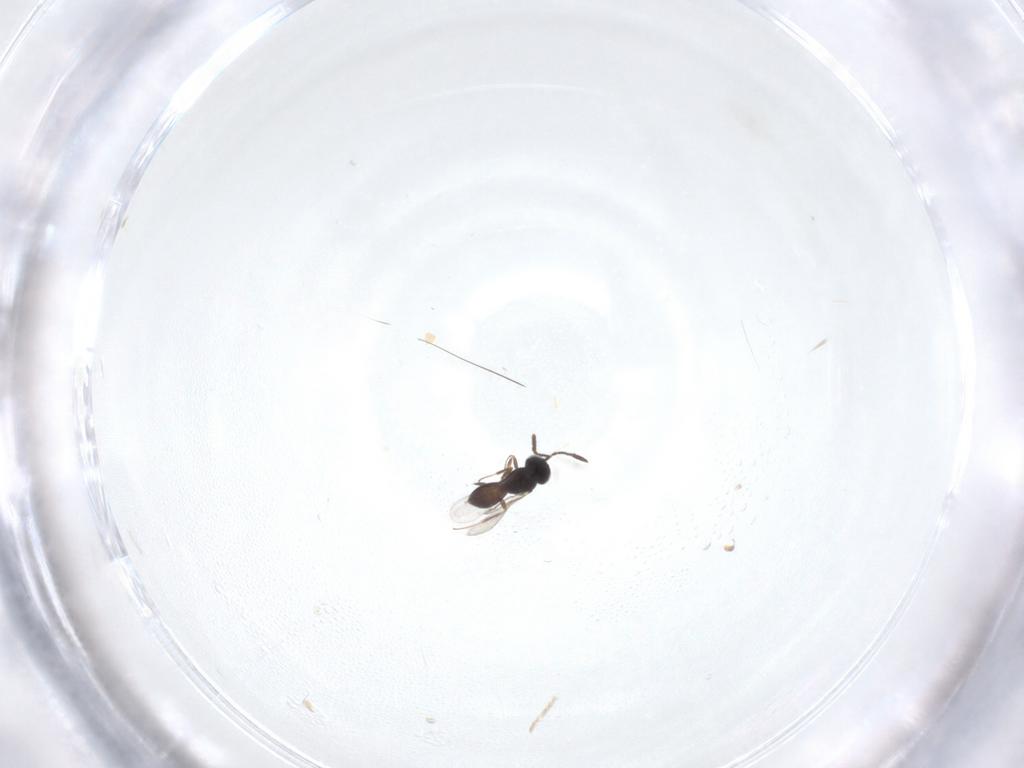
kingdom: Animalia
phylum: Arthropoda
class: Insecta
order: Hymenoptera
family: Scelionidae
